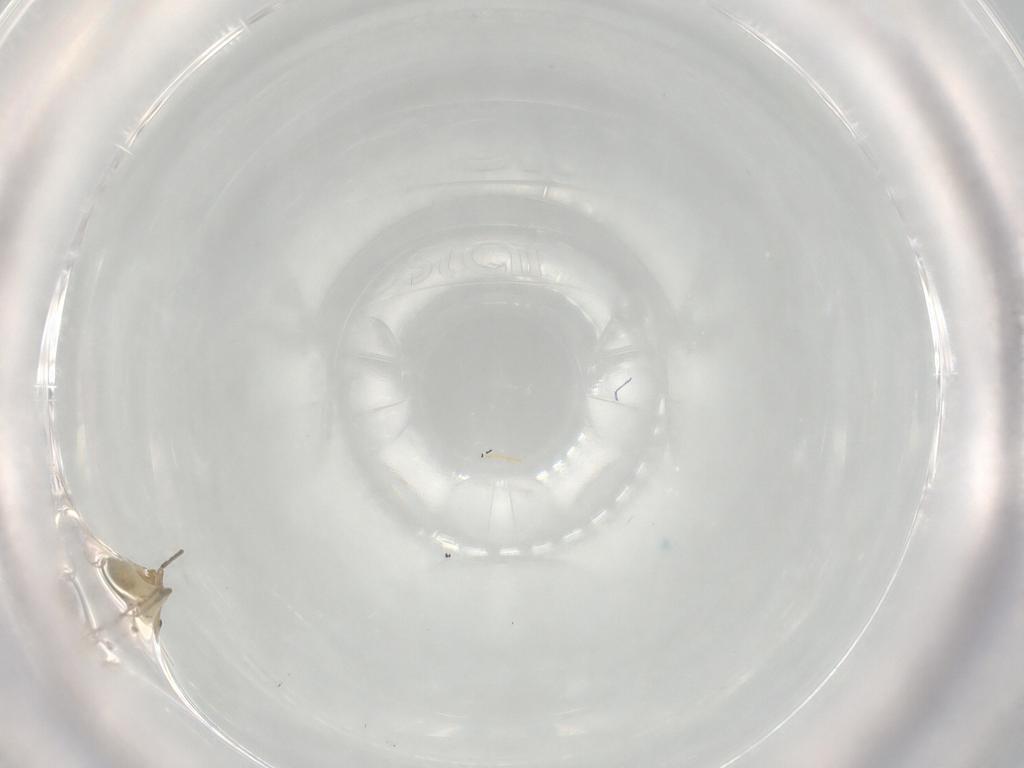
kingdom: Animalia
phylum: Arthropoda
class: Insecta
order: Diptera
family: Chironomidae
